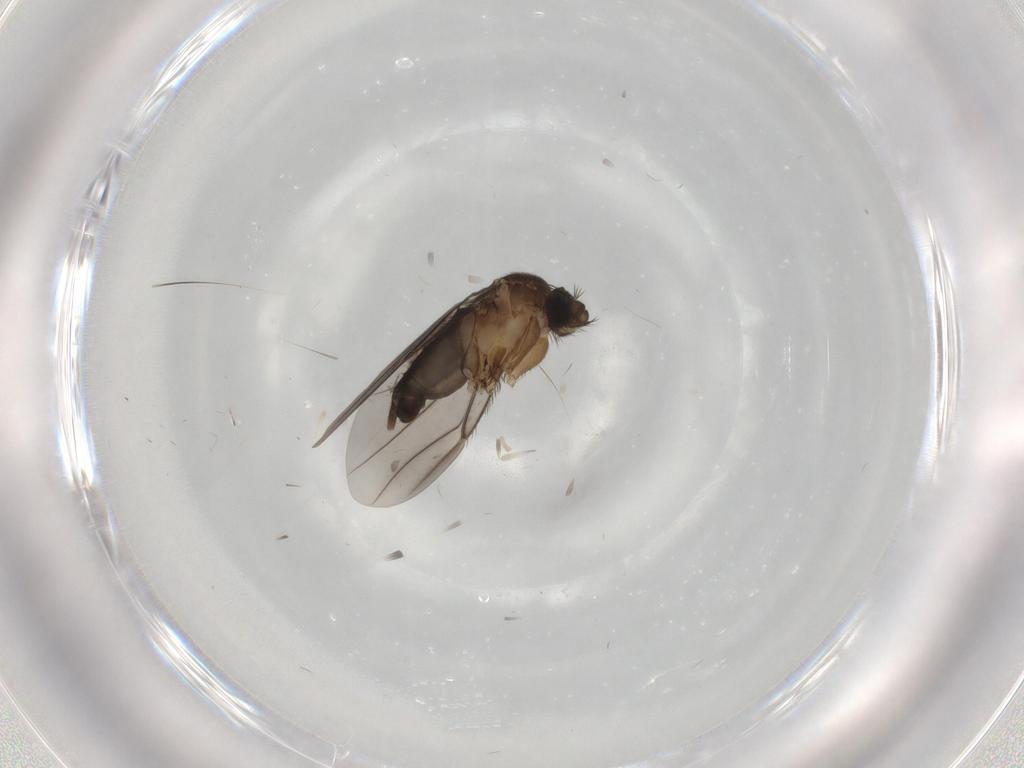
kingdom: Animalia
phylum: Arthropoda
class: Insecta
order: Diptera
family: Phoridae
